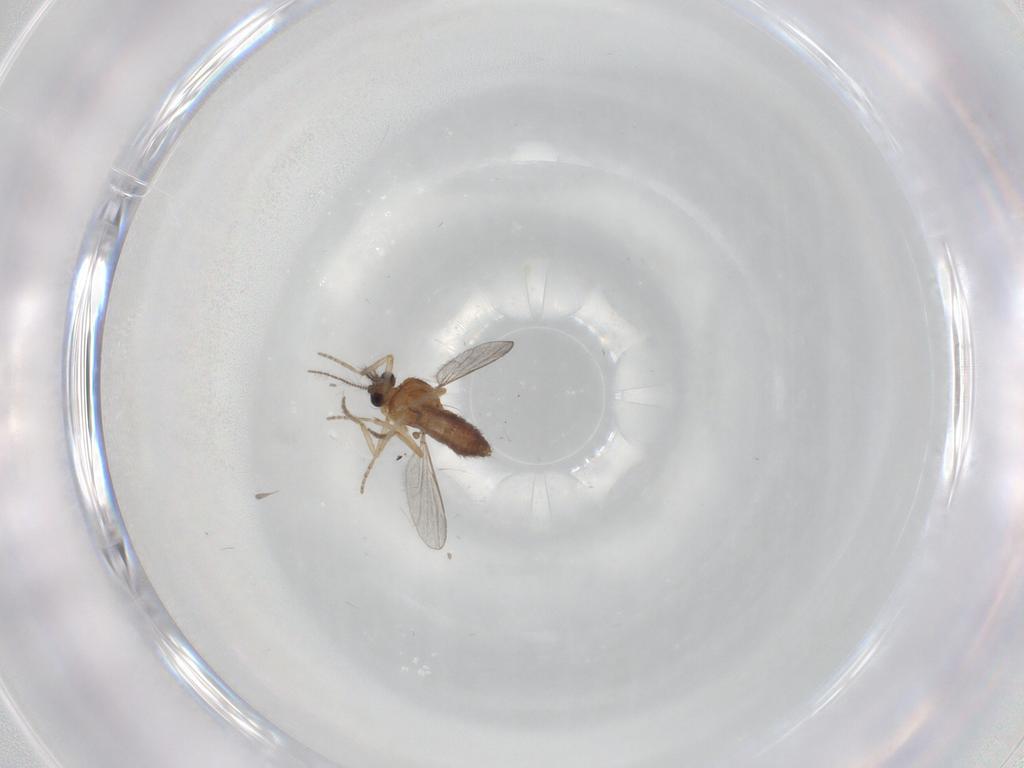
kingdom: Animalia
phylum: Arthropoda
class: Insecta
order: Diptera
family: Ceratopogonidae
